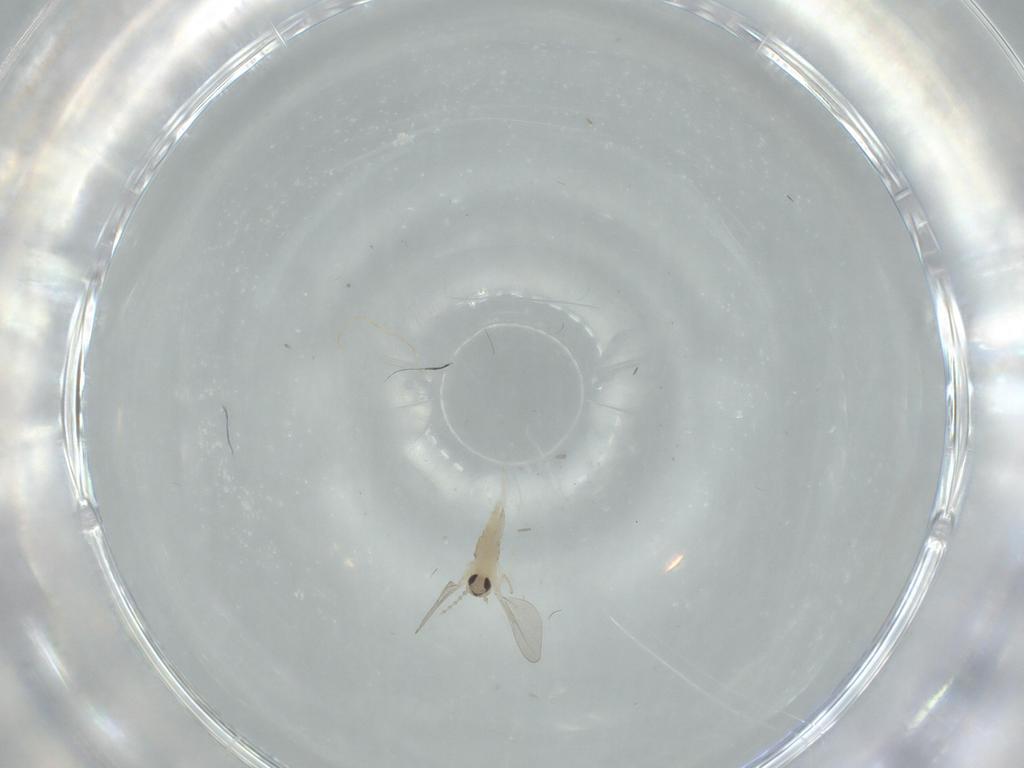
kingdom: Animalia
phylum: Arthropoda
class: Insecta
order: Diptera
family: Cecidomyiidae
